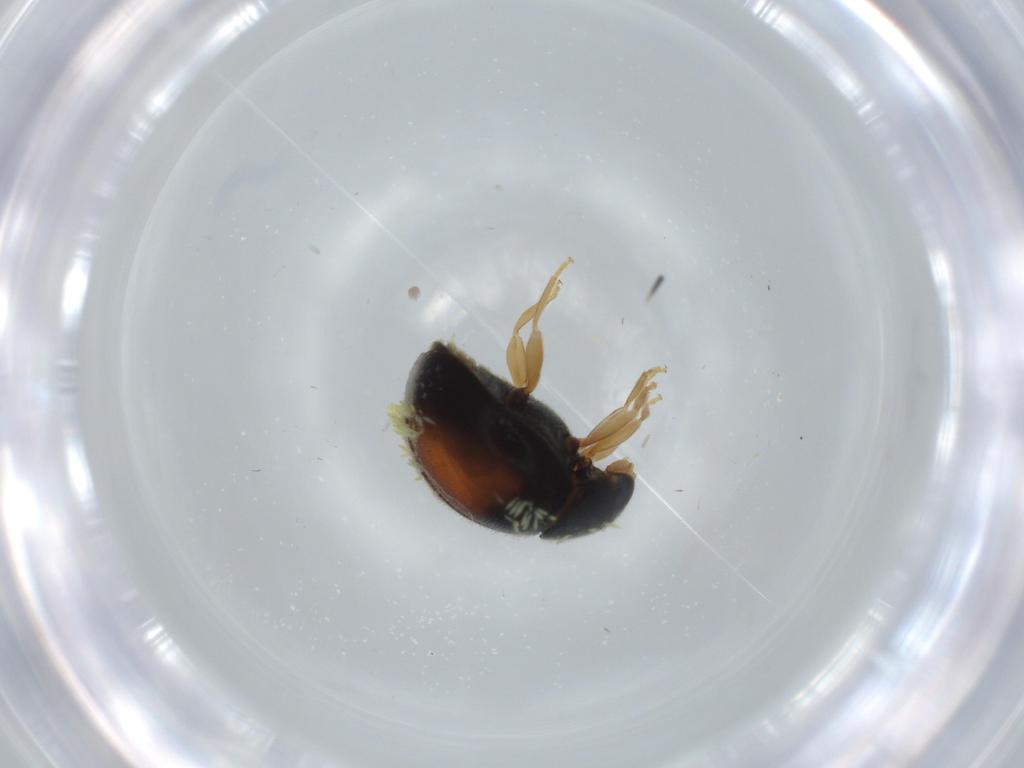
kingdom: Animalia
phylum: Arthropoda
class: Insecta
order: Coleoptera
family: Coccinellidae
